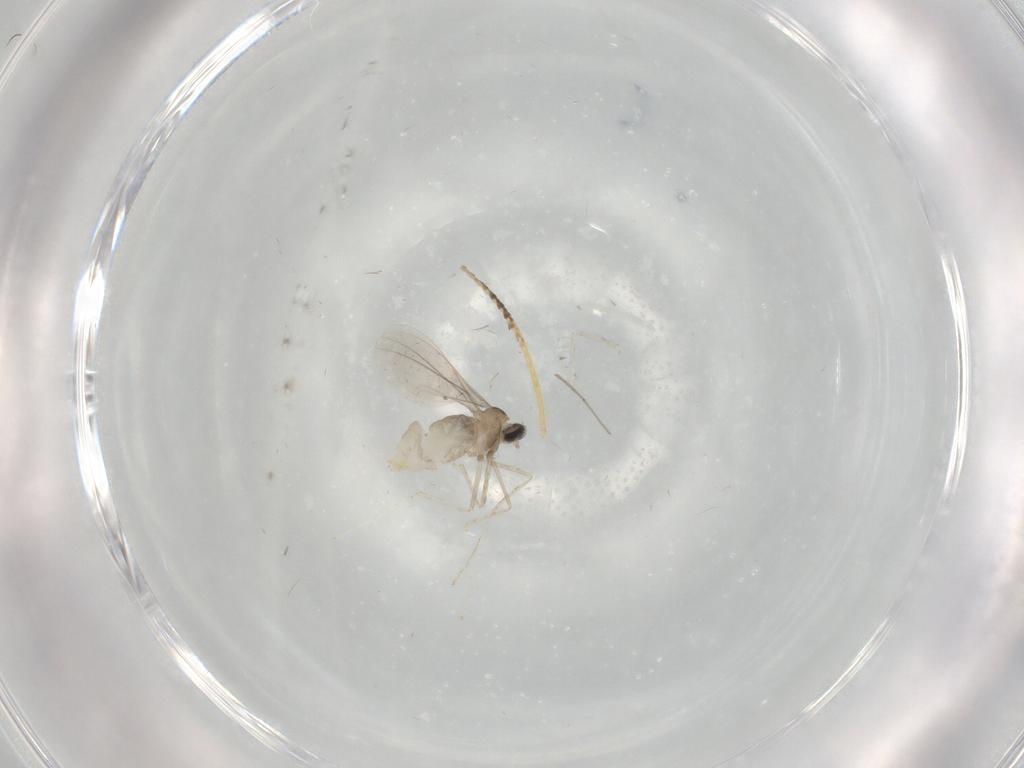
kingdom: Animalia
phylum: Arthropoda
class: Insecta
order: Diptera
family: Cecidomyiidae
